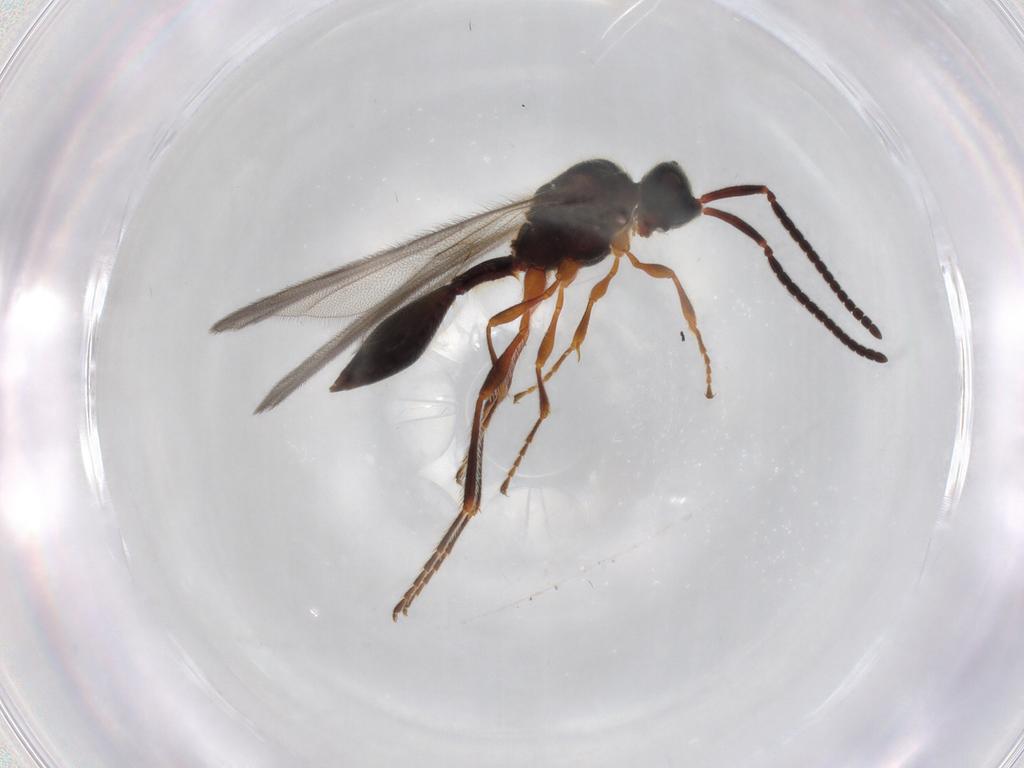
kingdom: Animalia
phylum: Arthropoda
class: Insecta
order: Hymenoptera
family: Diapriidae
